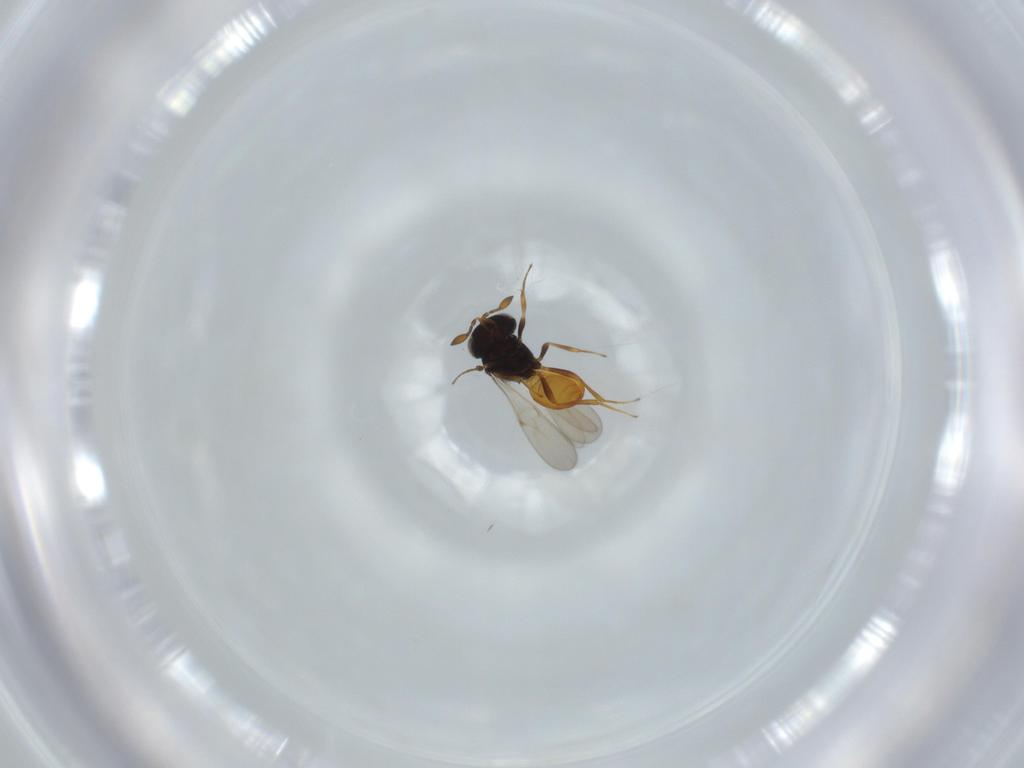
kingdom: Animalia
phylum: Arthropoda
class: Insecta
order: Hymenoptera
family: Scelionidae
